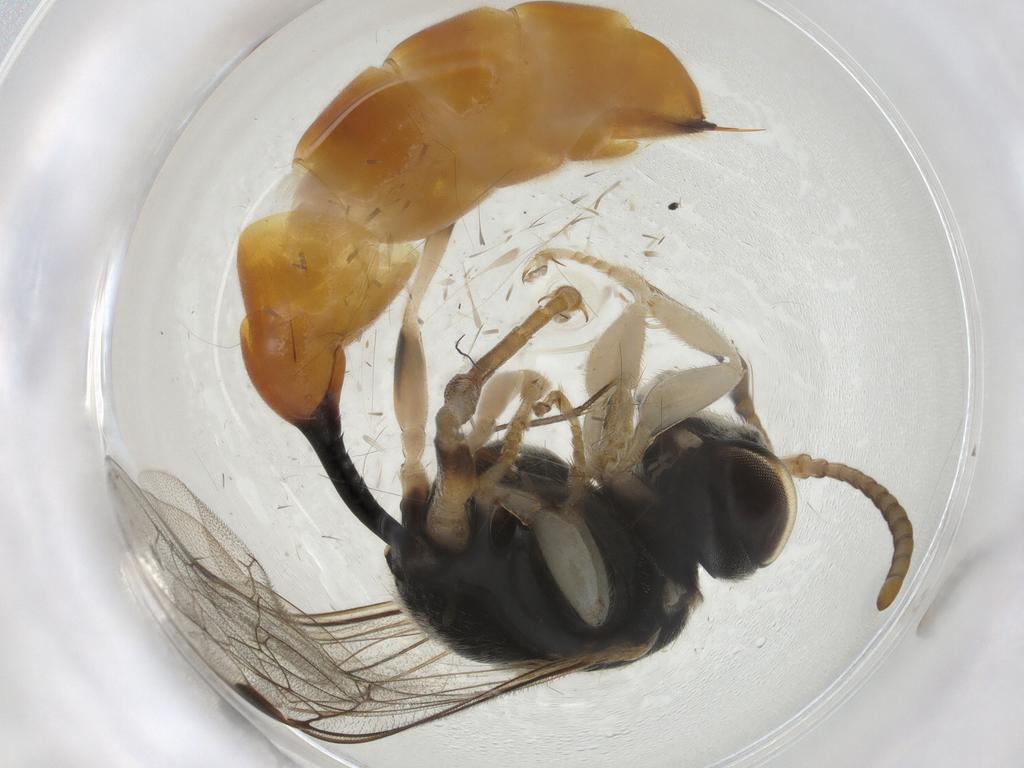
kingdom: Animalia
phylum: Arthropoda
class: Insecta
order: Hymenoptera
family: Crabronidae
